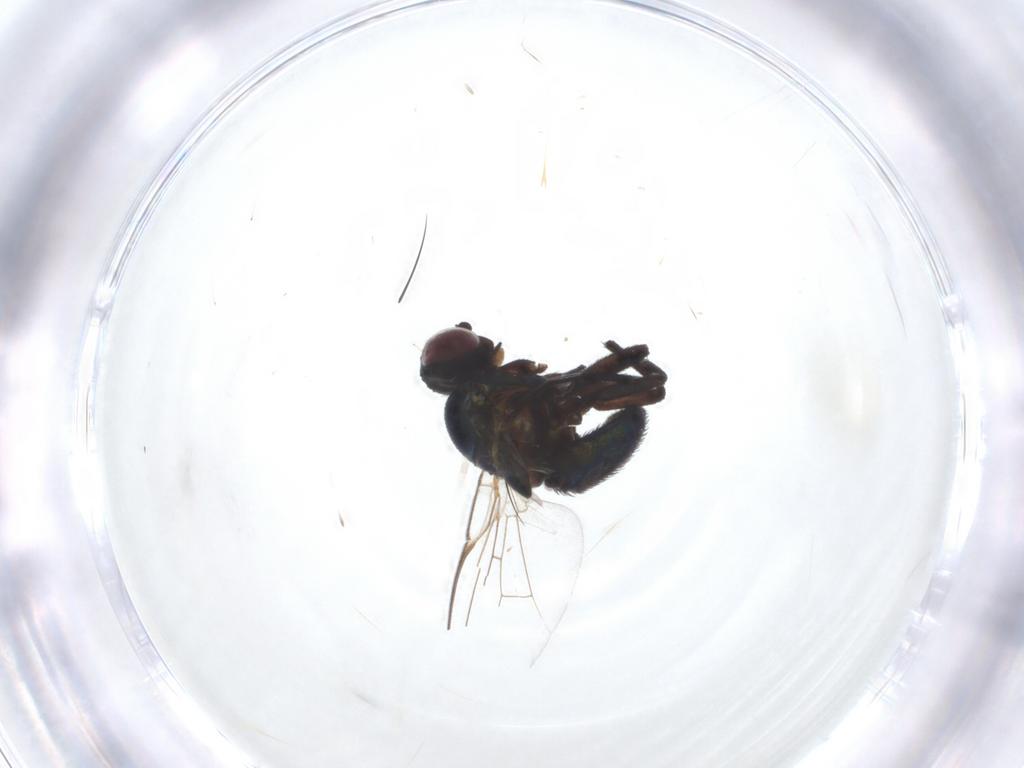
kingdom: Animalia
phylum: Arthropoda
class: Insecta
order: Diptera
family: Agromyzidae
